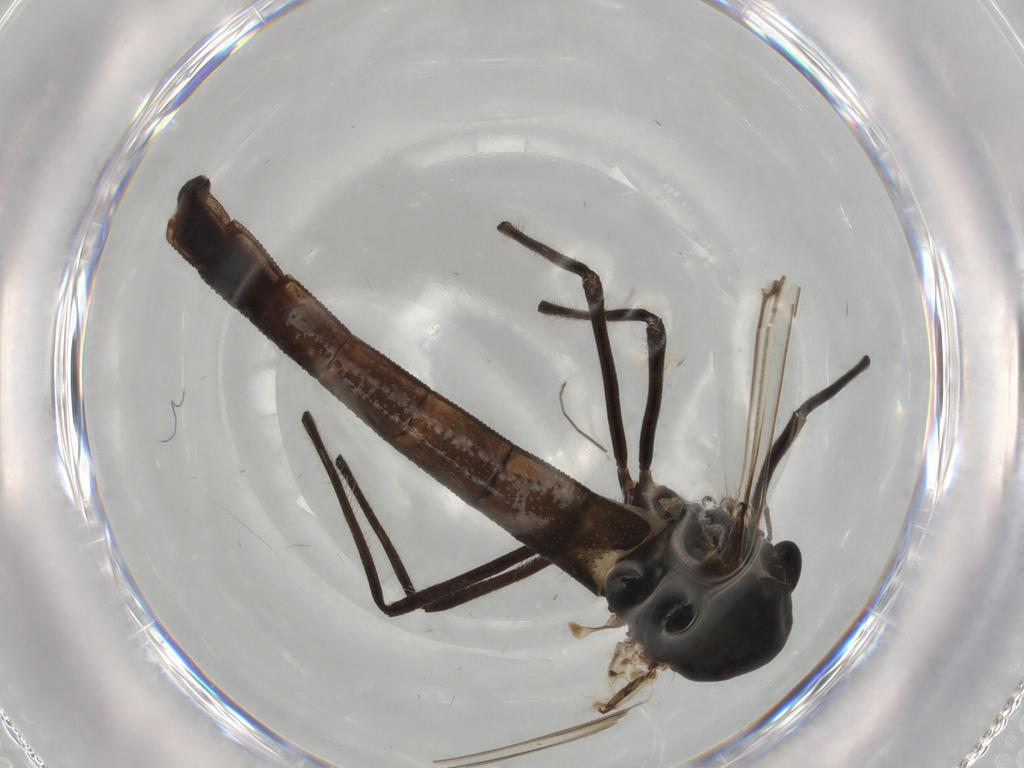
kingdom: Animalia
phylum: Arthropoda
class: Insecta
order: Diptera
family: Chironomidae
